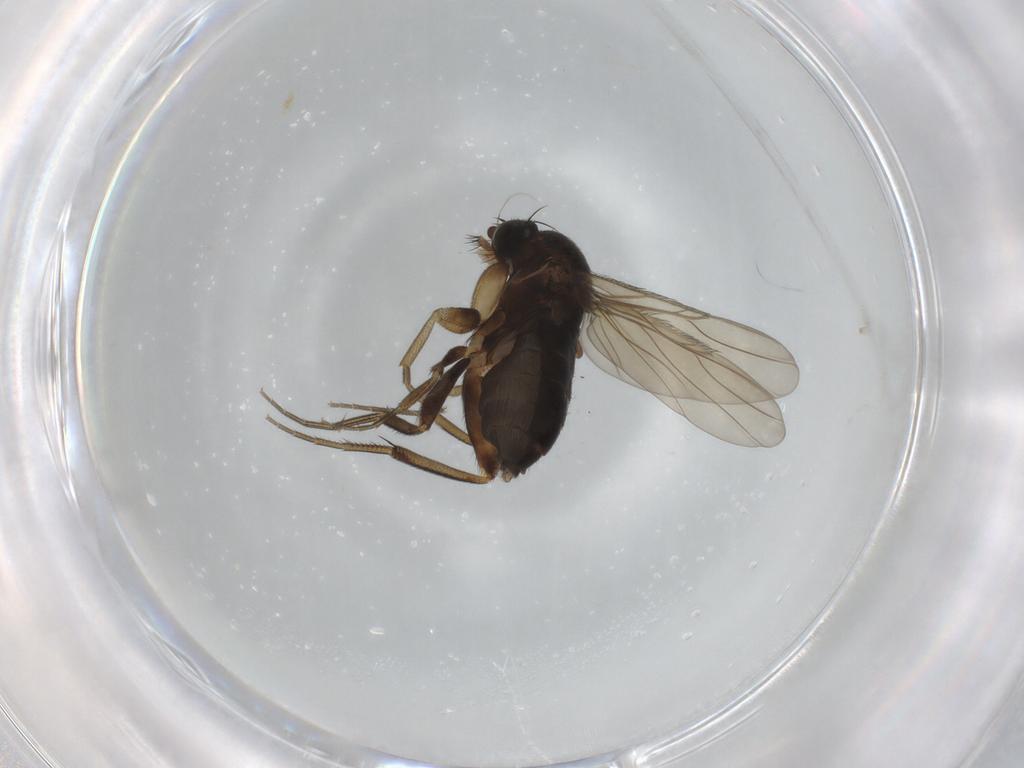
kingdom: Animalia
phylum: Arthropoda
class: Insecta
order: Diptera
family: Phoridae
